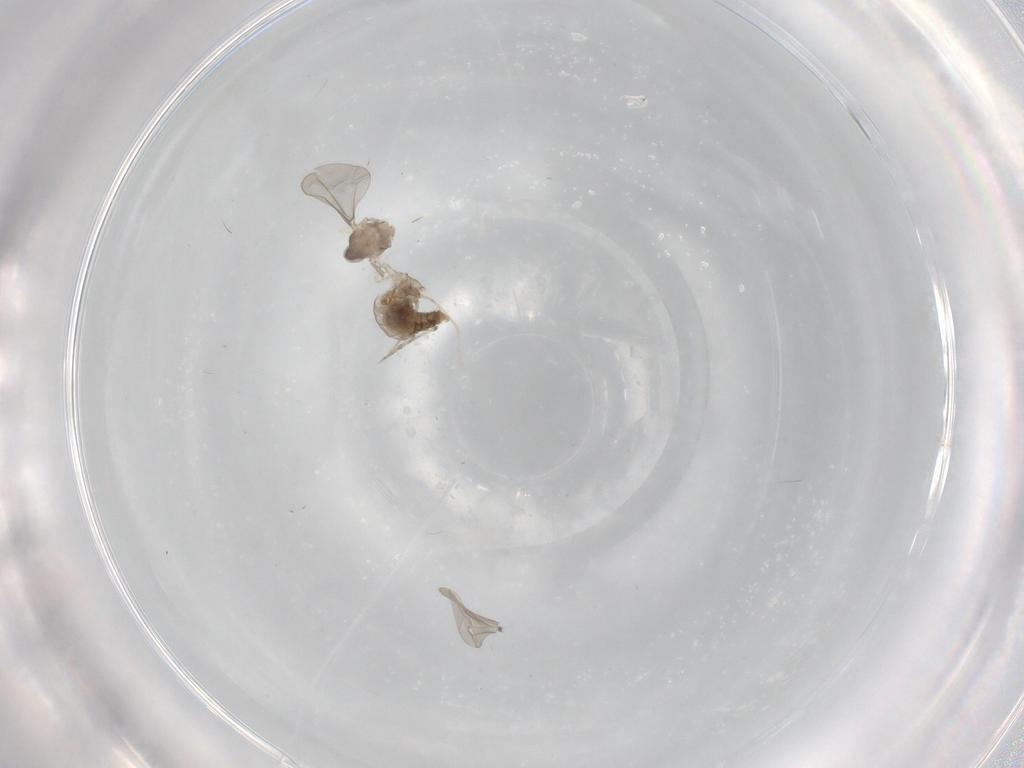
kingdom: Animalia
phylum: Arthropoda
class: Insecta
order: Diptera
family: Cecidomyiidae
